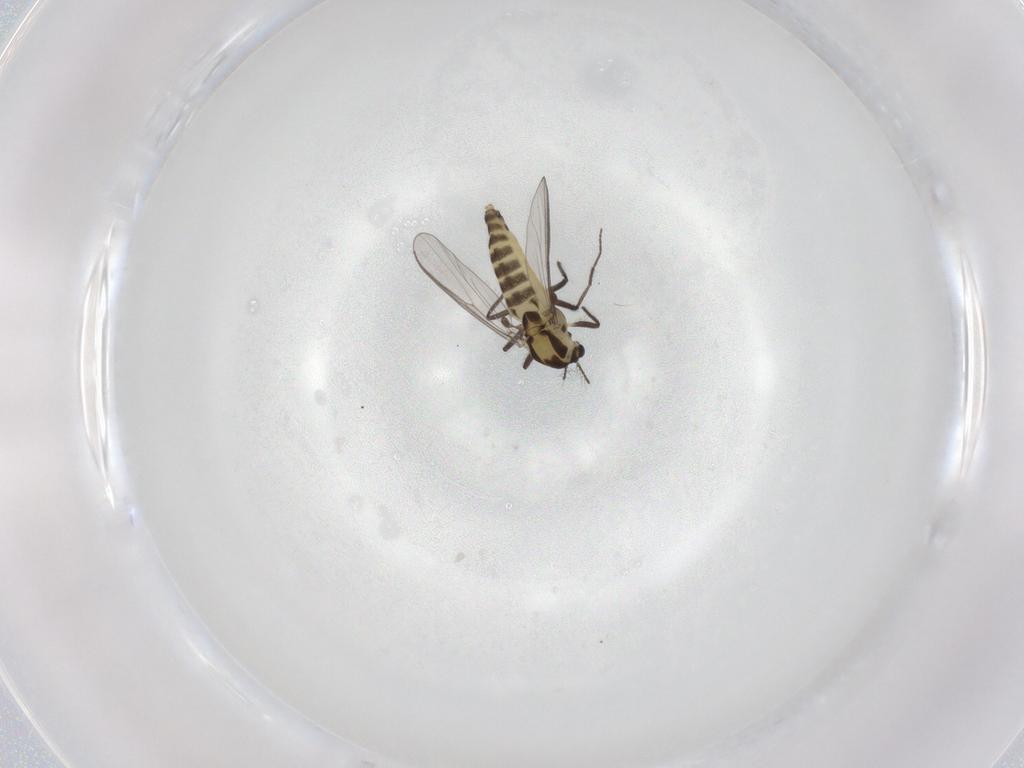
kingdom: Animalia
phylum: Arthropoda
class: Insecta
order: Diptera
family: Chironomidae
